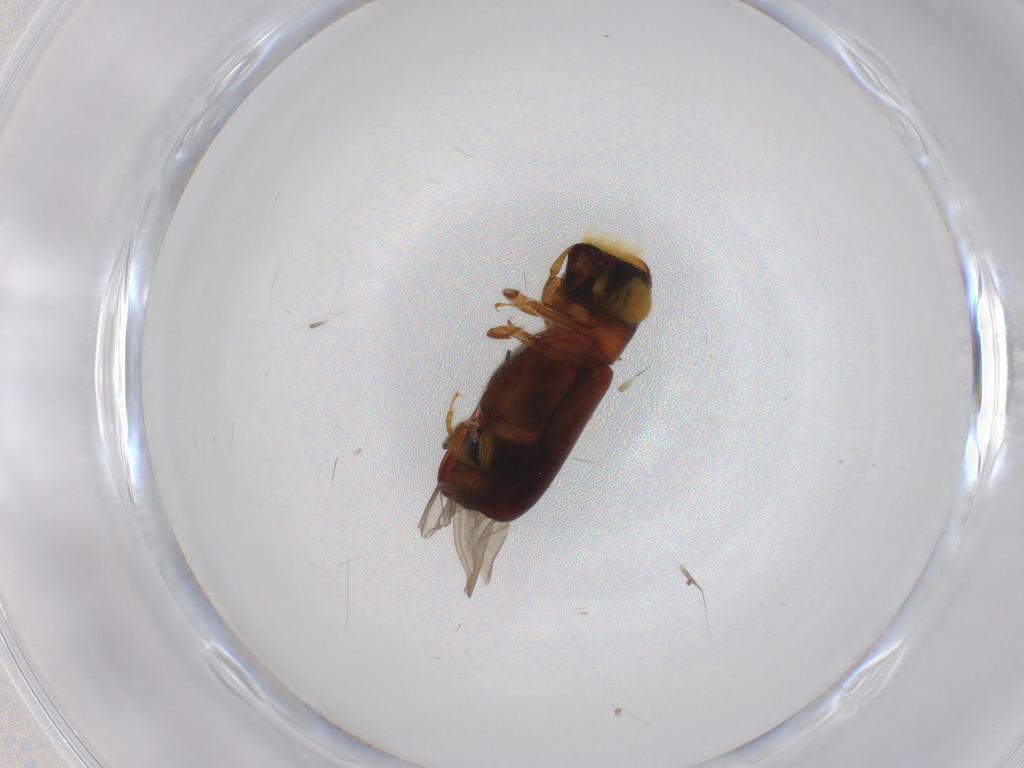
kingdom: Animalia
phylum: Arthropoda
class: Insecta
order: Coleoptera
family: Curculionidae
